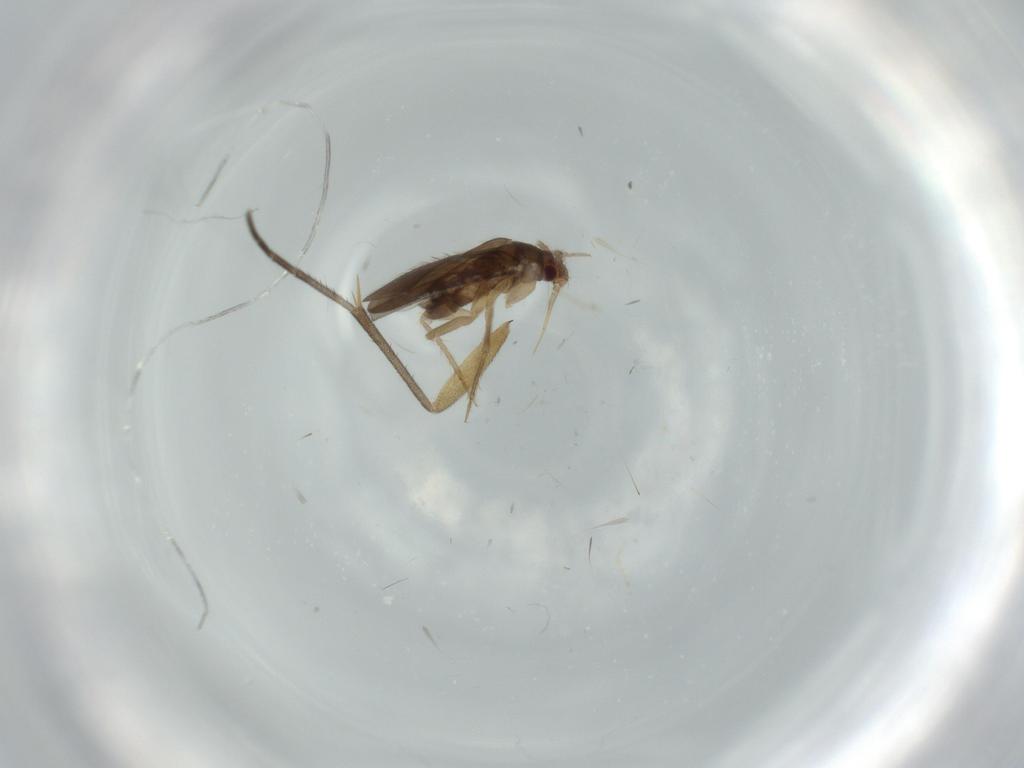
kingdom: Animalia
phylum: Arthropoda
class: Insecta
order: Hemiptera
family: Ceratocombidae
